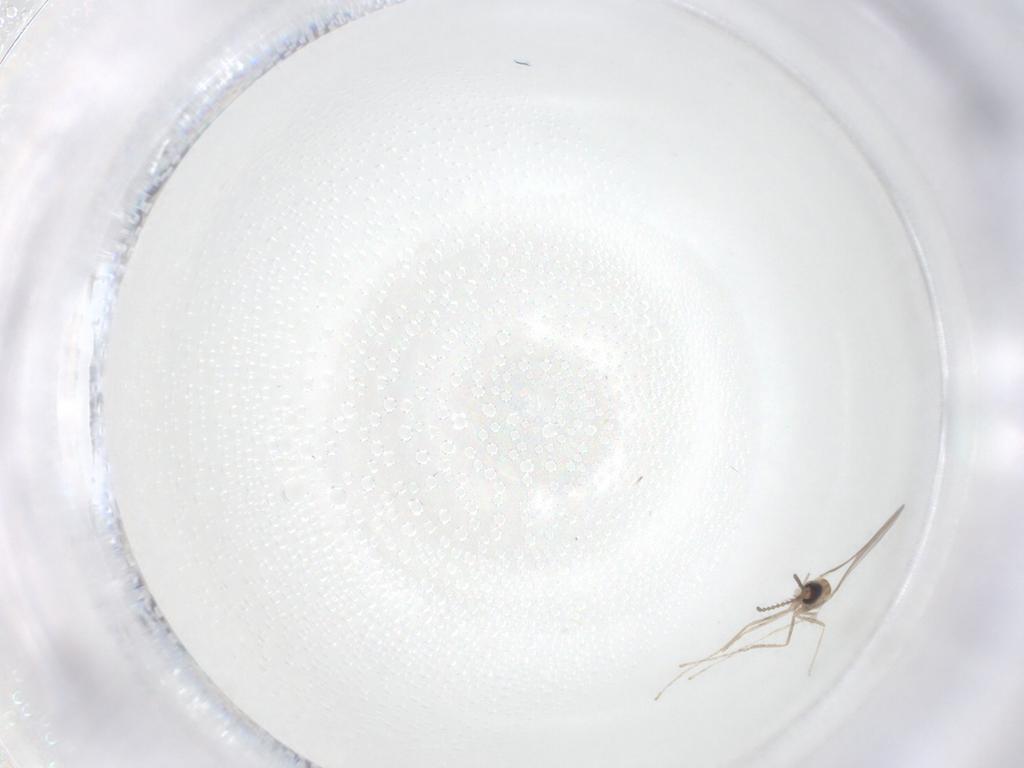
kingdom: Animalia
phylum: Arthropoda
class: Insecta
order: Diptera
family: Cecidomyiidae
